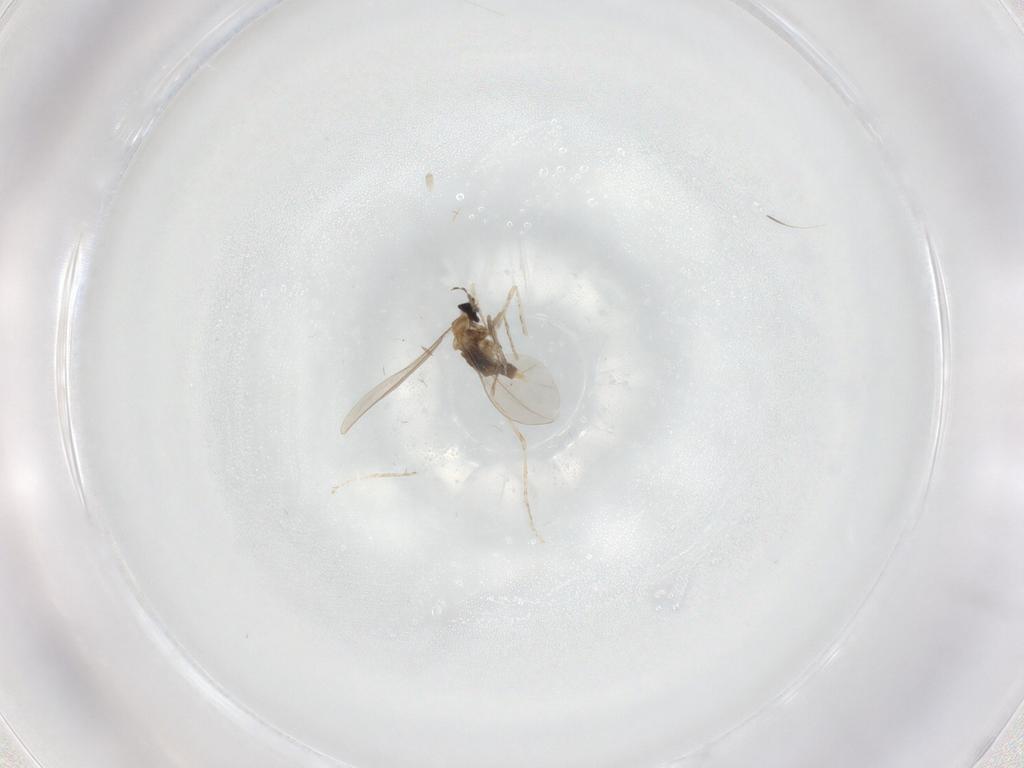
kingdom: Animalia
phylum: Arthropoda
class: Insecta
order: Diptera
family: Cecidomyiidae
